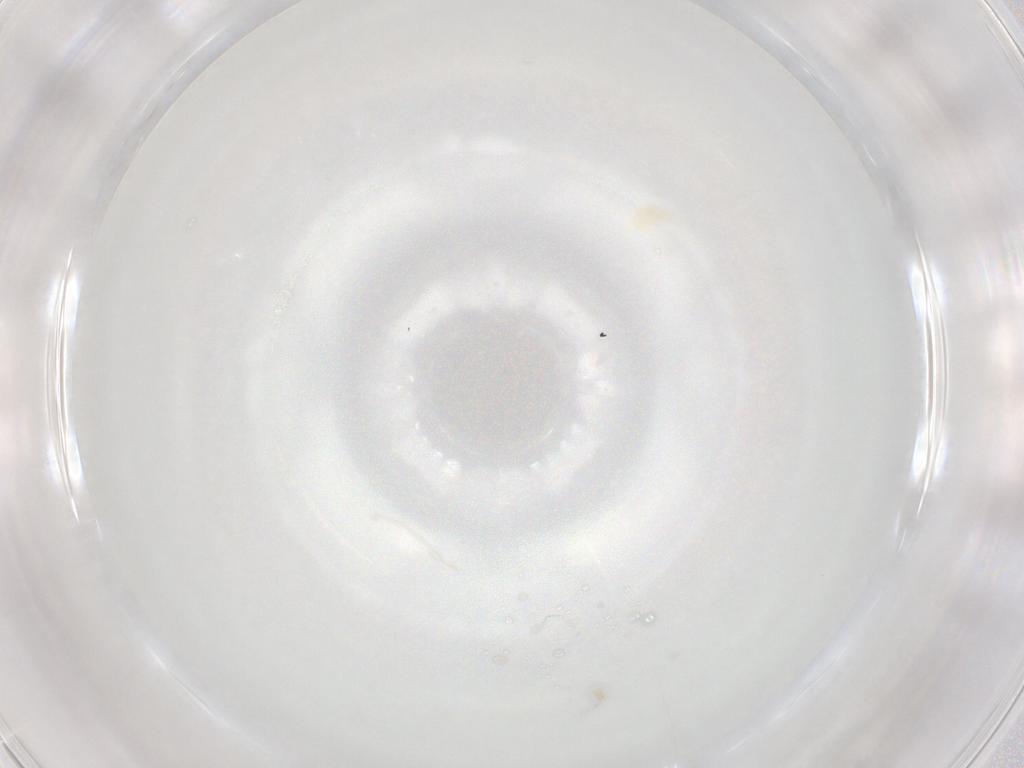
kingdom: Animalia
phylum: Arthropoda
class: Arachnida
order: Trombidiformes
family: Eupodidae
